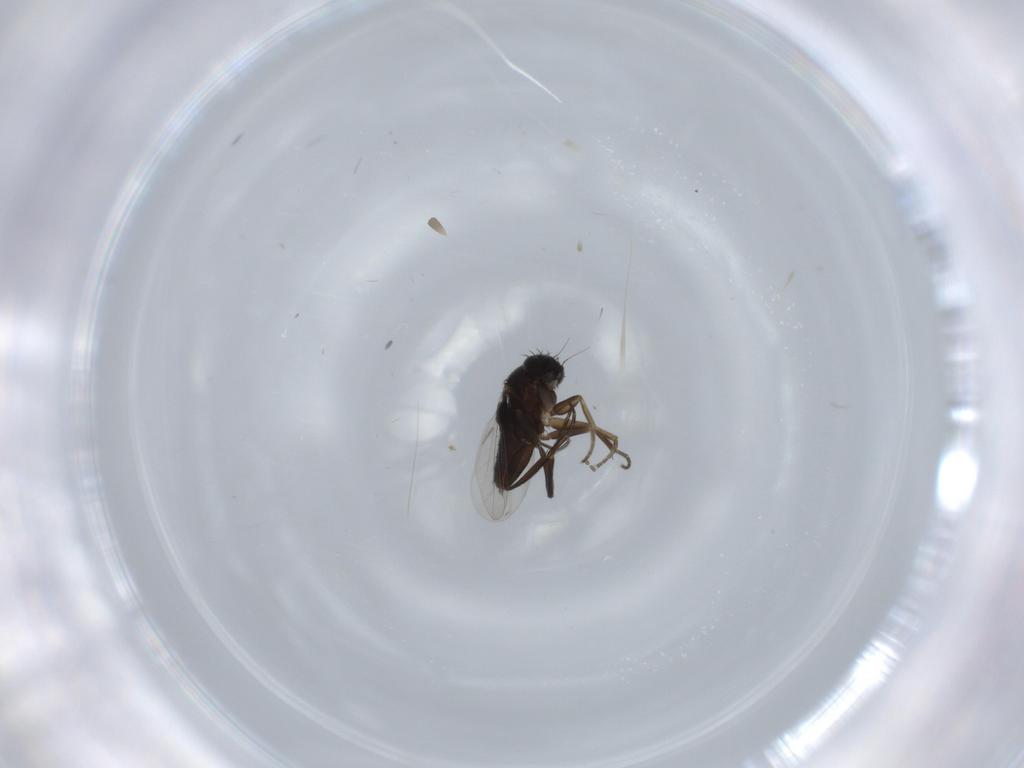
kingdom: Animalia
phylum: Arthropoda
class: Insecta
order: Diptera
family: Phoridae
